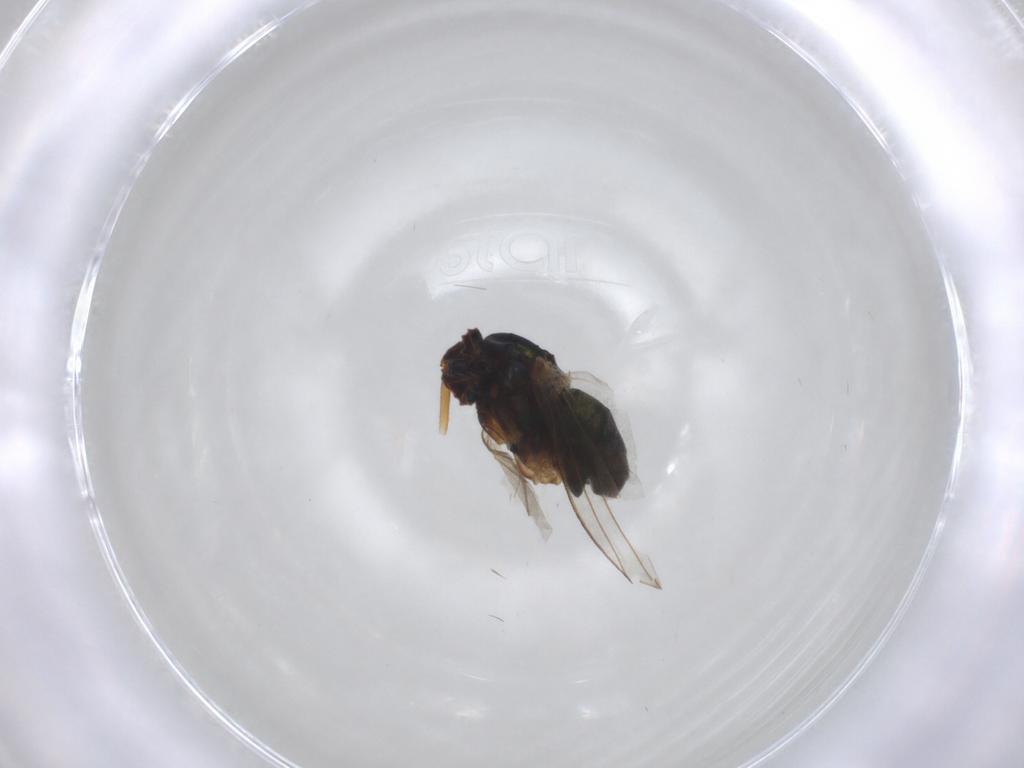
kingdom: Animalia
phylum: Arthropoda
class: Insecta
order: Diptera
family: Dolichopodidae
